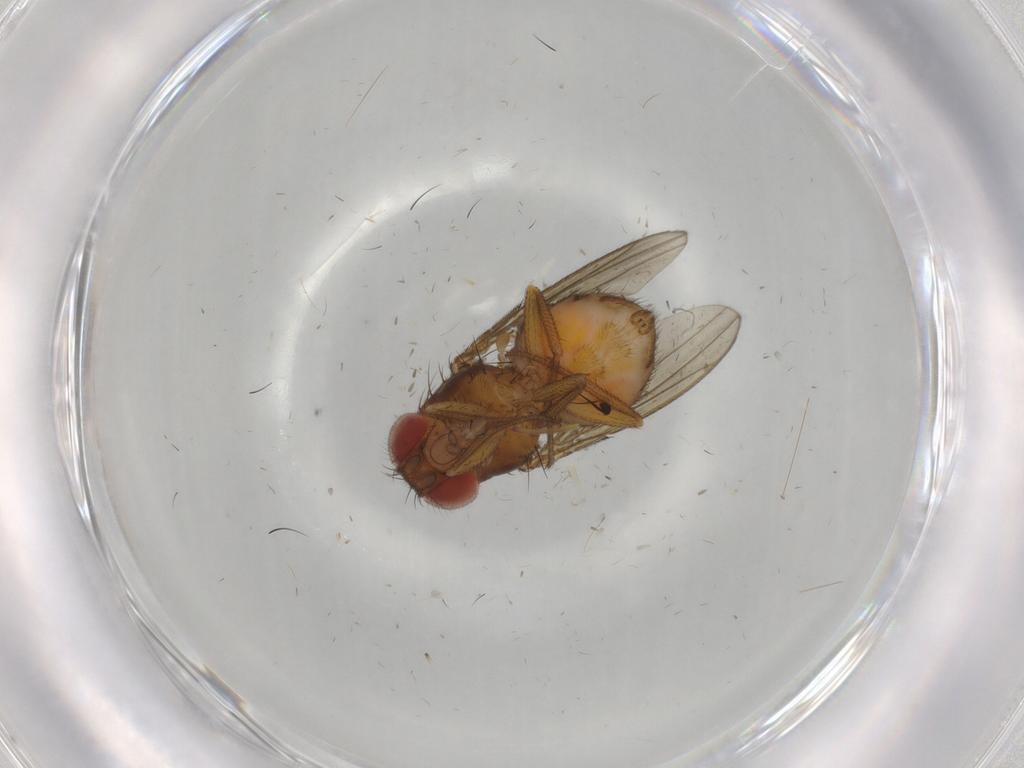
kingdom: Animalia
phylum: Arthropoda
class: Insecta
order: Diptera
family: Drosophilidae
